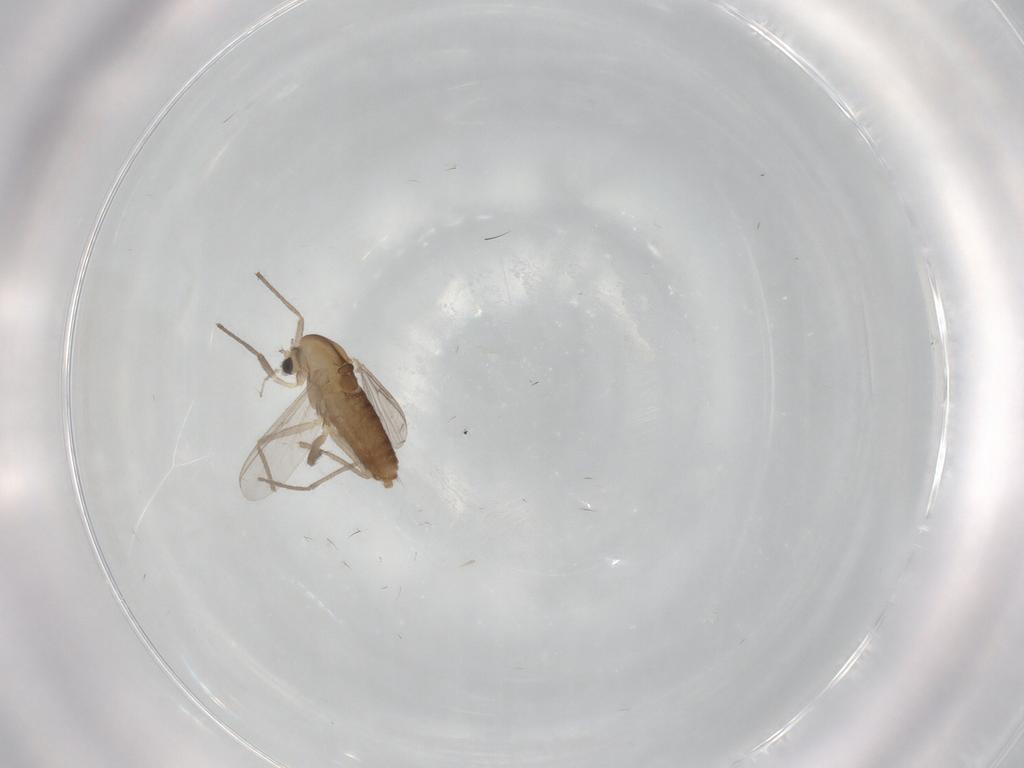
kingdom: Animalia
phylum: Arthropoda
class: Insecta
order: Diptera
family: Chironomidae
